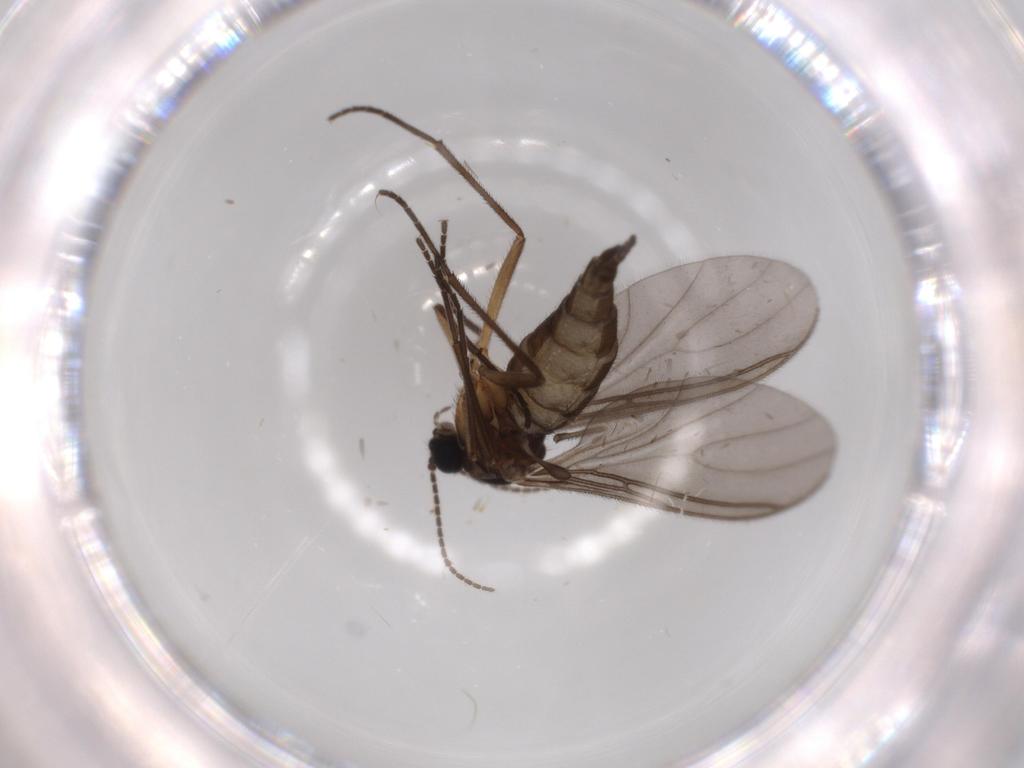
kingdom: Animalia
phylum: Arthropoda
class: Insecta
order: Diptera
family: Sciaridae
